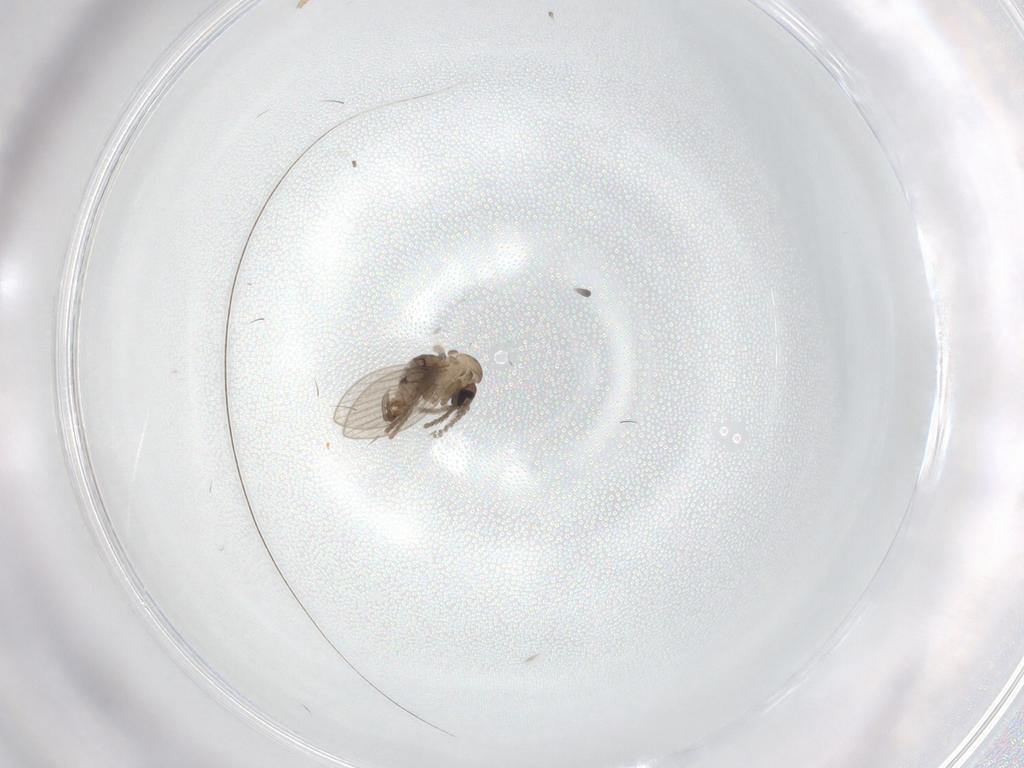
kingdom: Animalia
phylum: Arthropoda
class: Insecta
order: Diptera
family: Psychodidae
